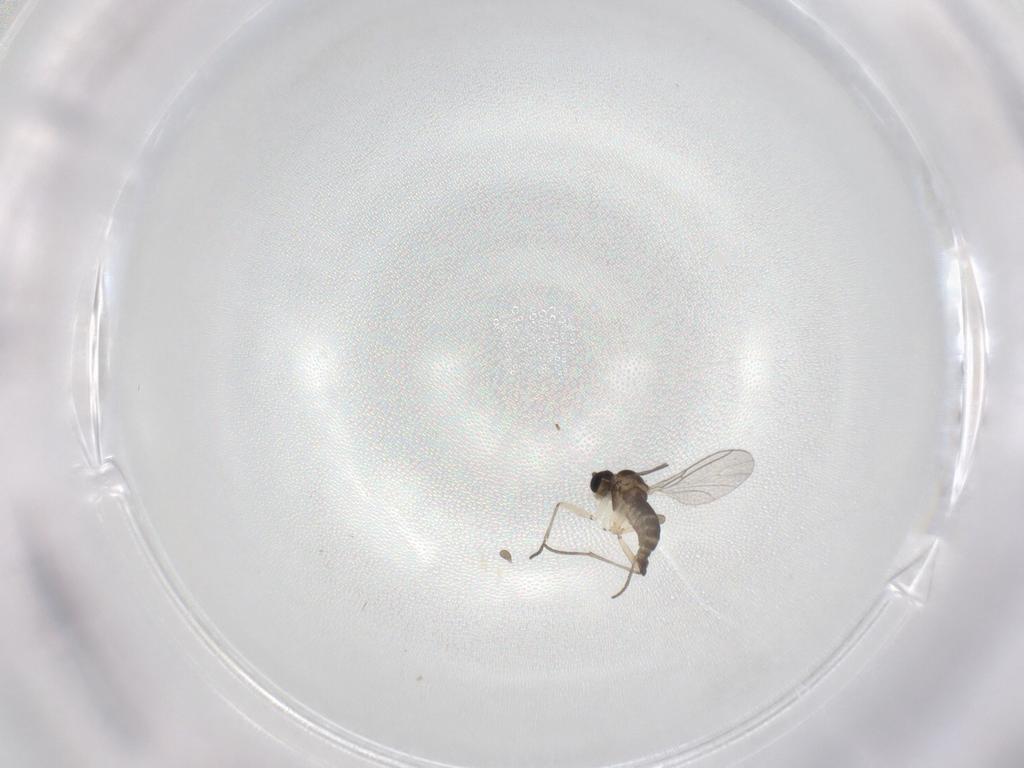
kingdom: Animalia
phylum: Arthropoda
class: Insecta
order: Diptera
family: Sciaridae
